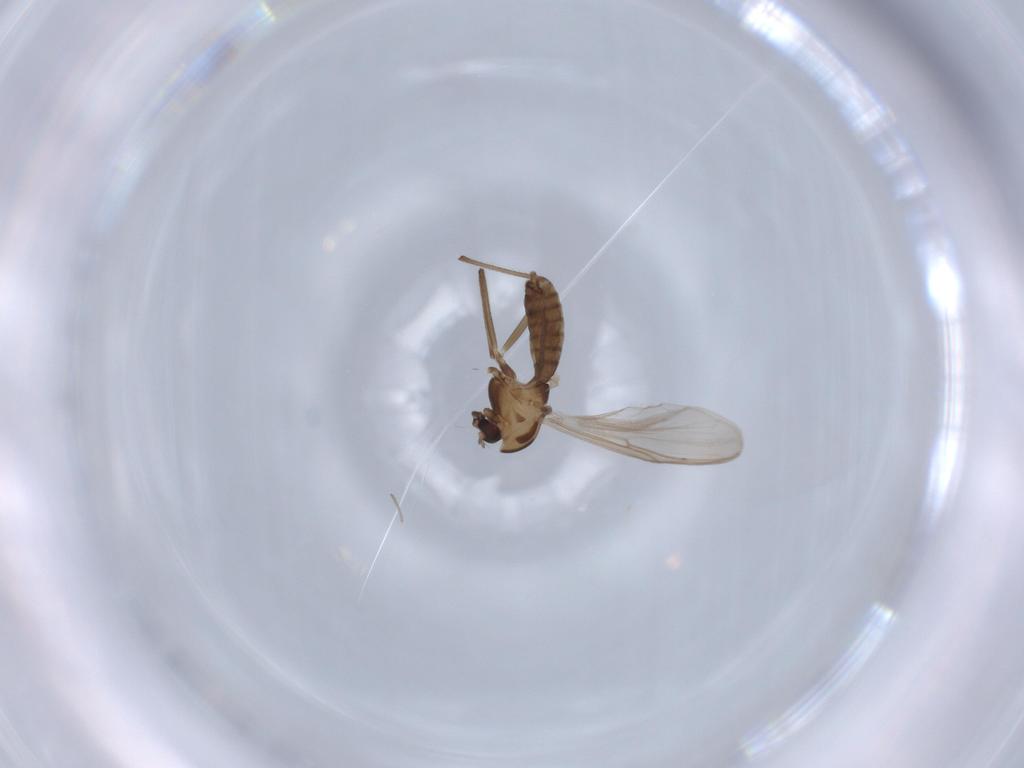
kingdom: Animalia
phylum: Arthropoda
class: Insecta
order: Diptera
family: Chironomidae
